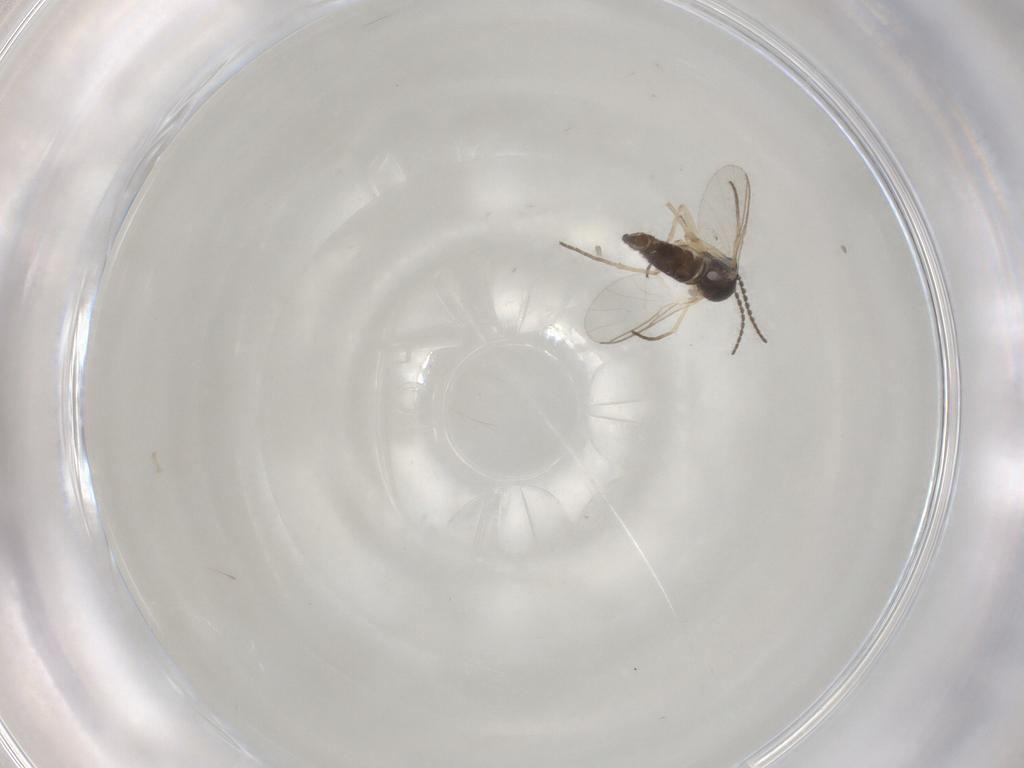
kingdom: Animalia
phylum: Arthropoda
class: Insecta
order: Diptera
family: Sciaridae
